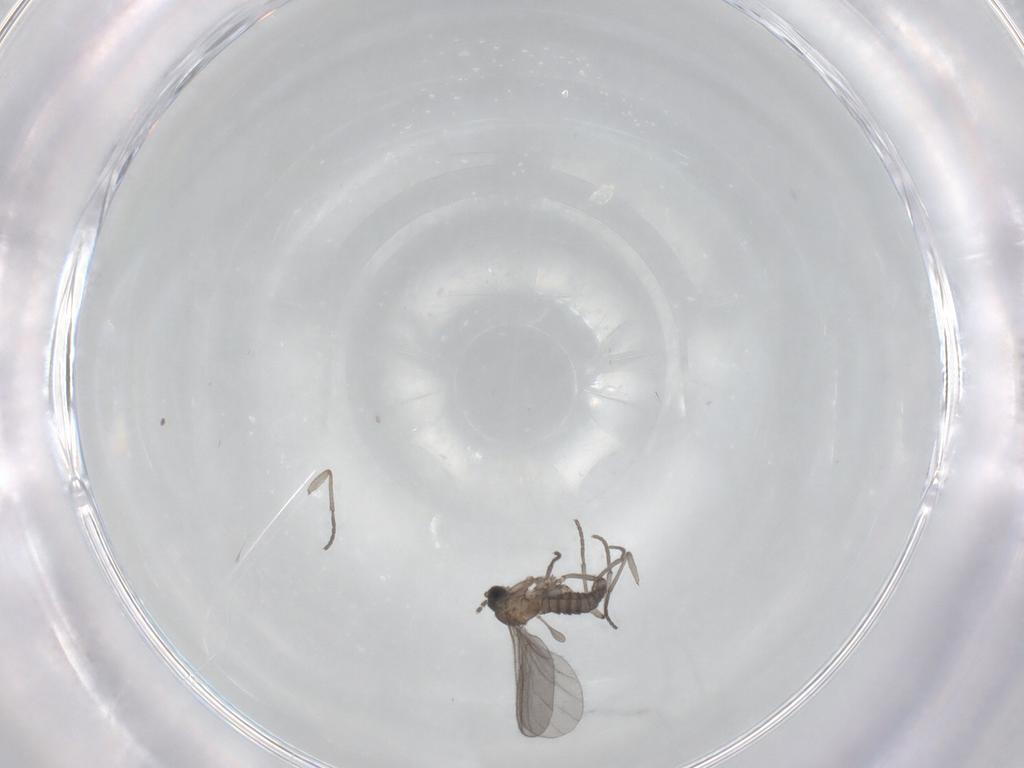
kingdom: Animalia
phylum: Arthropoda
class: Insecta
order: Diptera
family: Sciaridae
